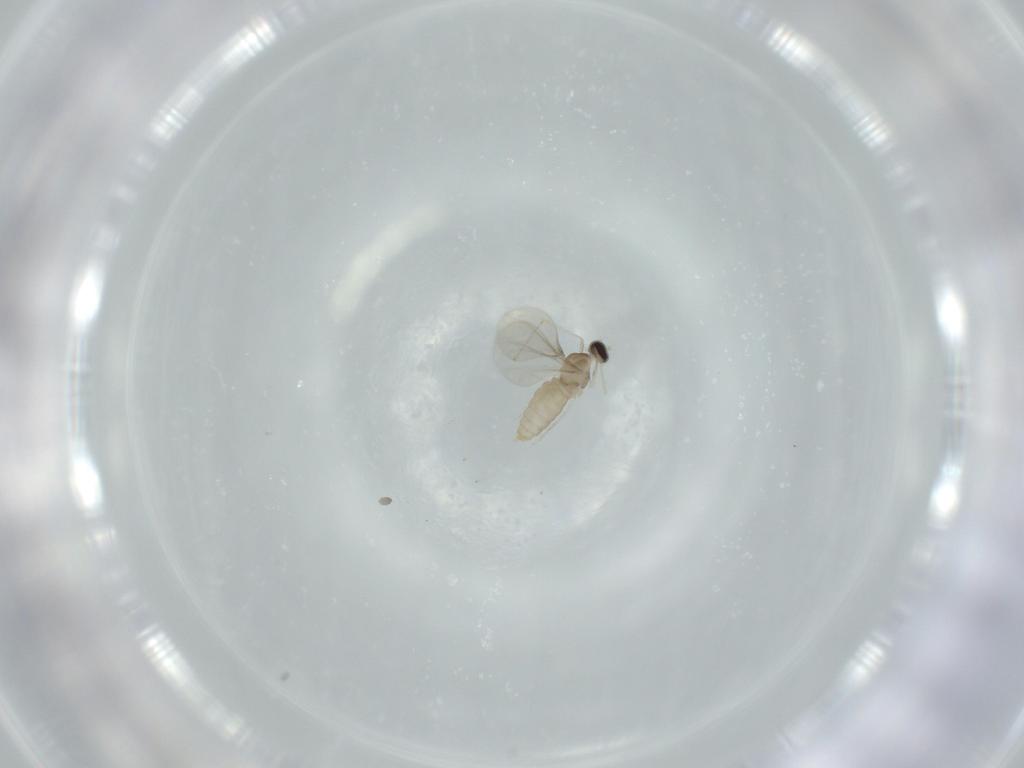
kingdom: Animalia
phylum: Arthropoda
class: Insecta
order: Diptera
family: Cecidomyiidae
